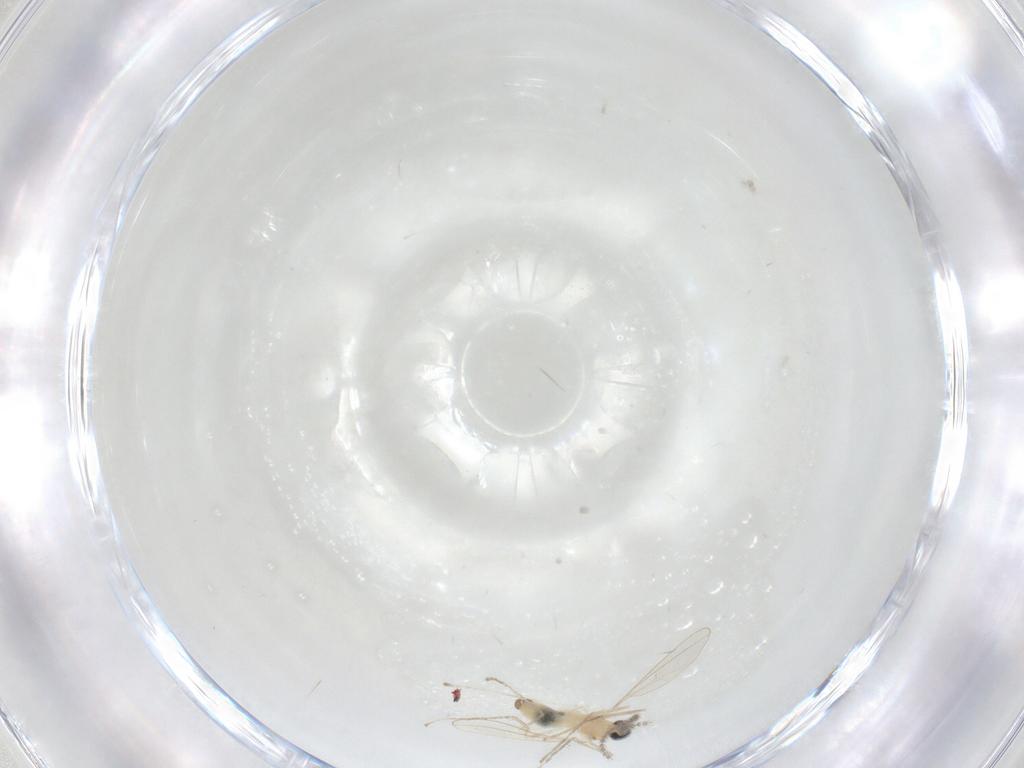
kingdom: Animalia
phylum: Arthropoda
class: Insecta
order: Diptera
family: Cecidomyiidae
